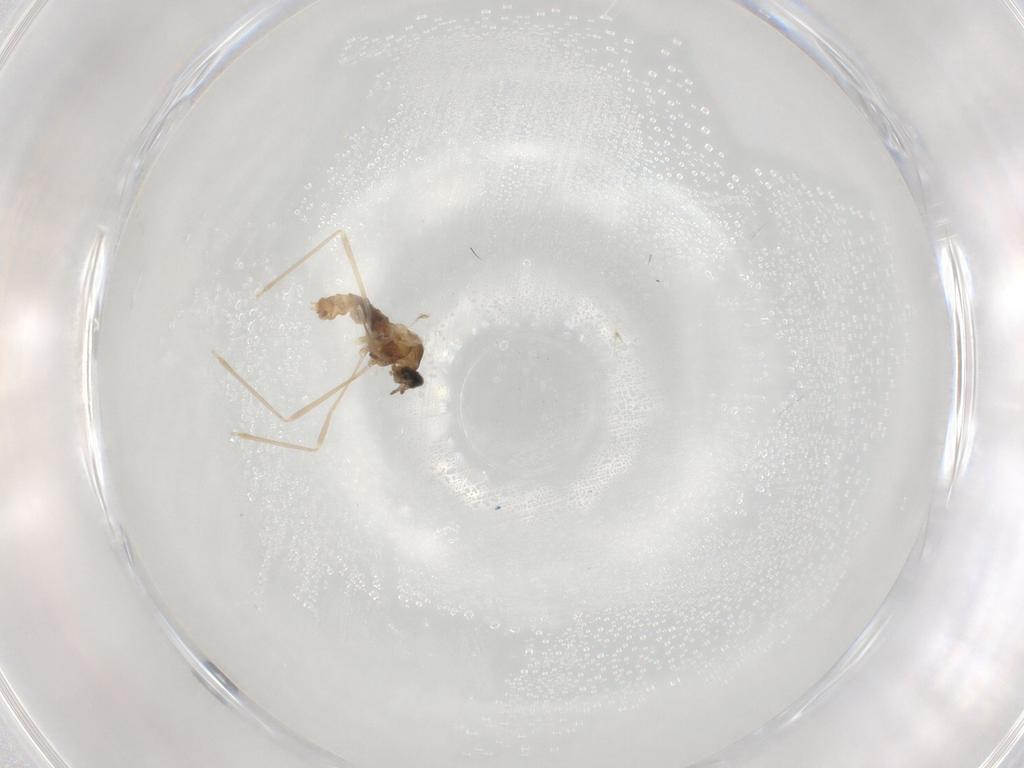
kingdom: Animalia
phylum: Arthropoda
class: Insecta
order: Diptera
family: Cecidomyiidae
